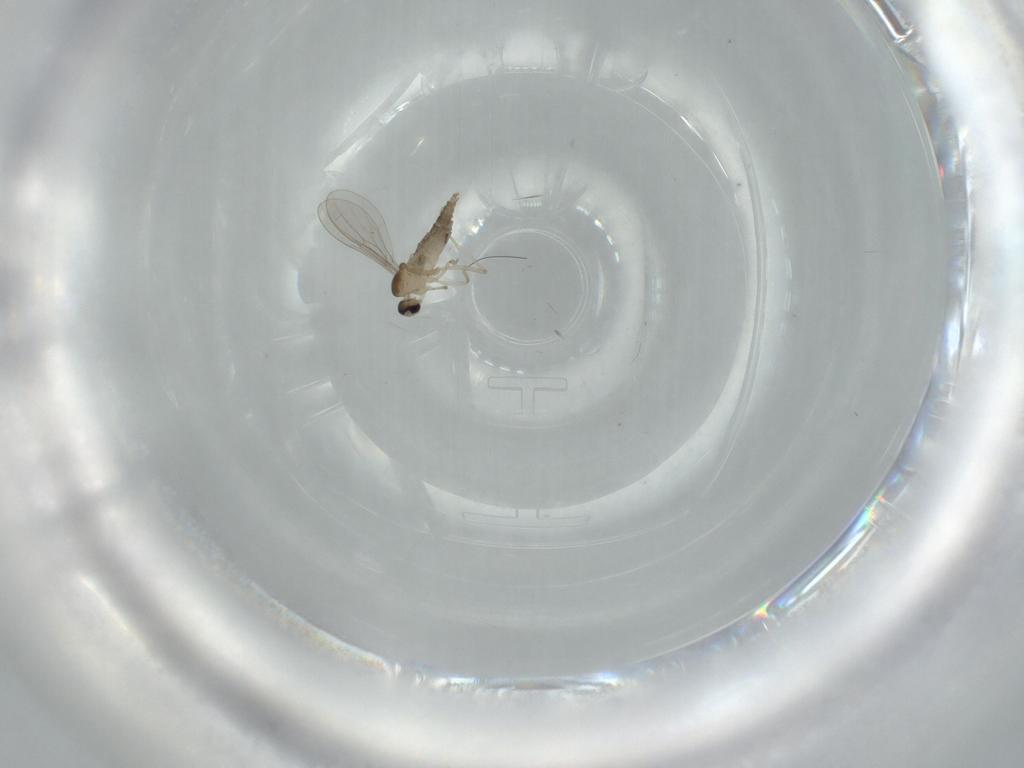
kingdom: Animalia
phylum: Arthropoda
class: Insecta
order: Diptera
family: Cecidomyiidae
